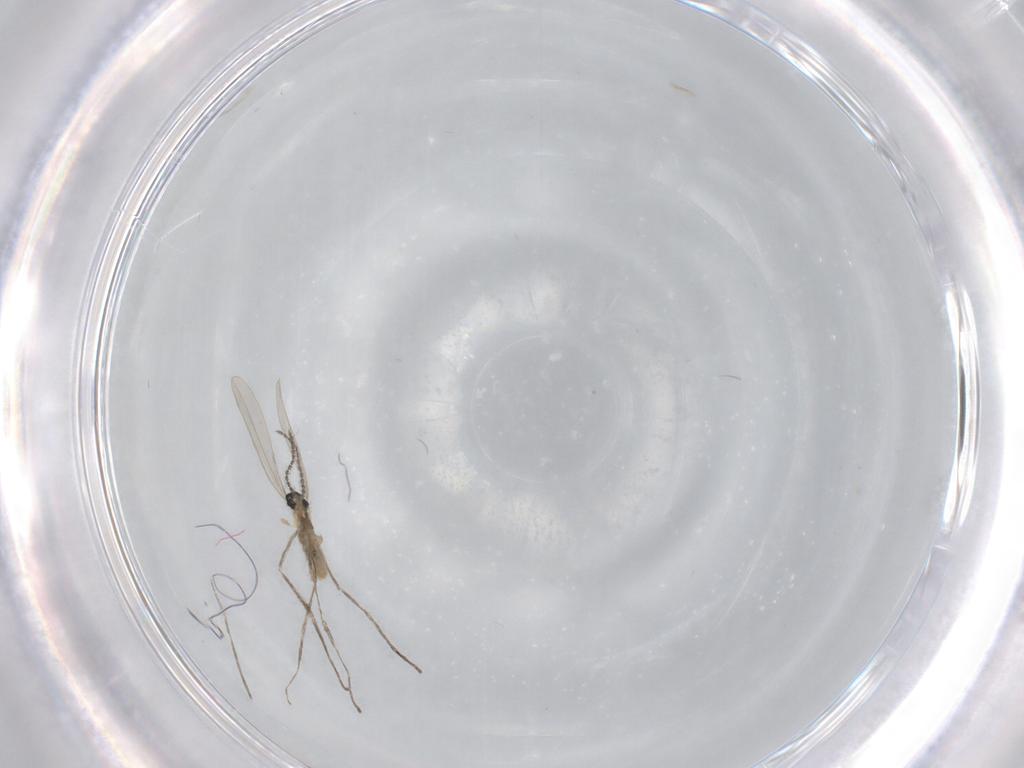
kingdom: Animalia
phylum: Arthropoda
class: Insecta
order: Diptera
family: Cecidomyiidae
